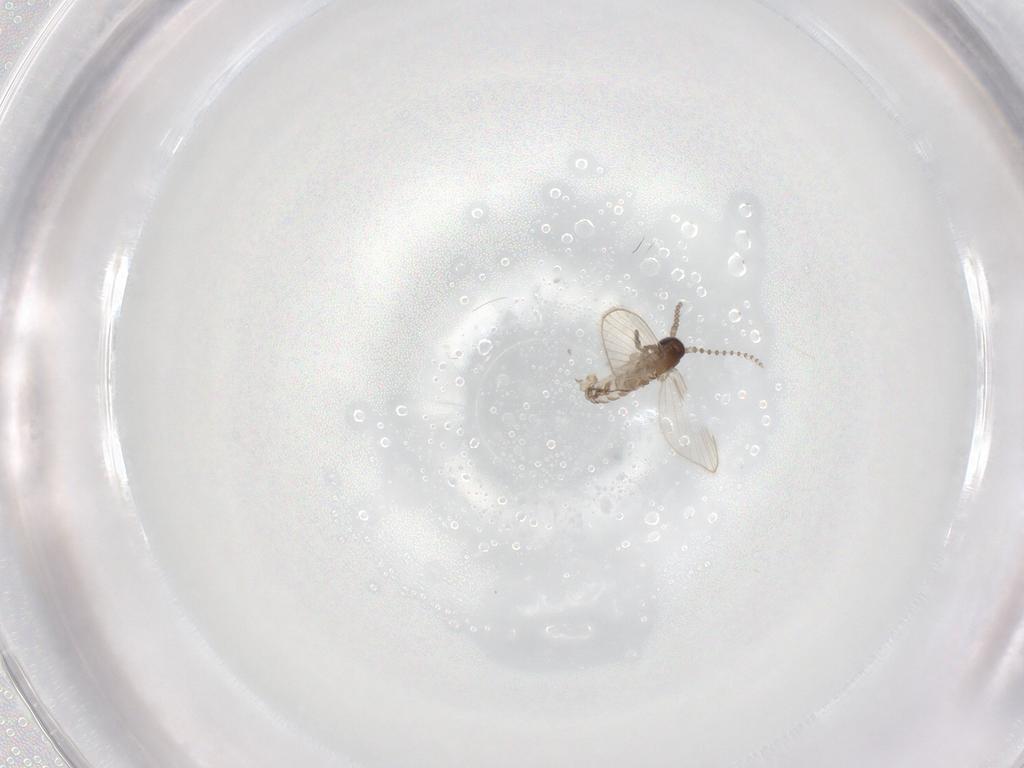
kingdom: Animalia
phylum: Arthropoda
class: Insecta
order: Diptera
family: Psychodidae
